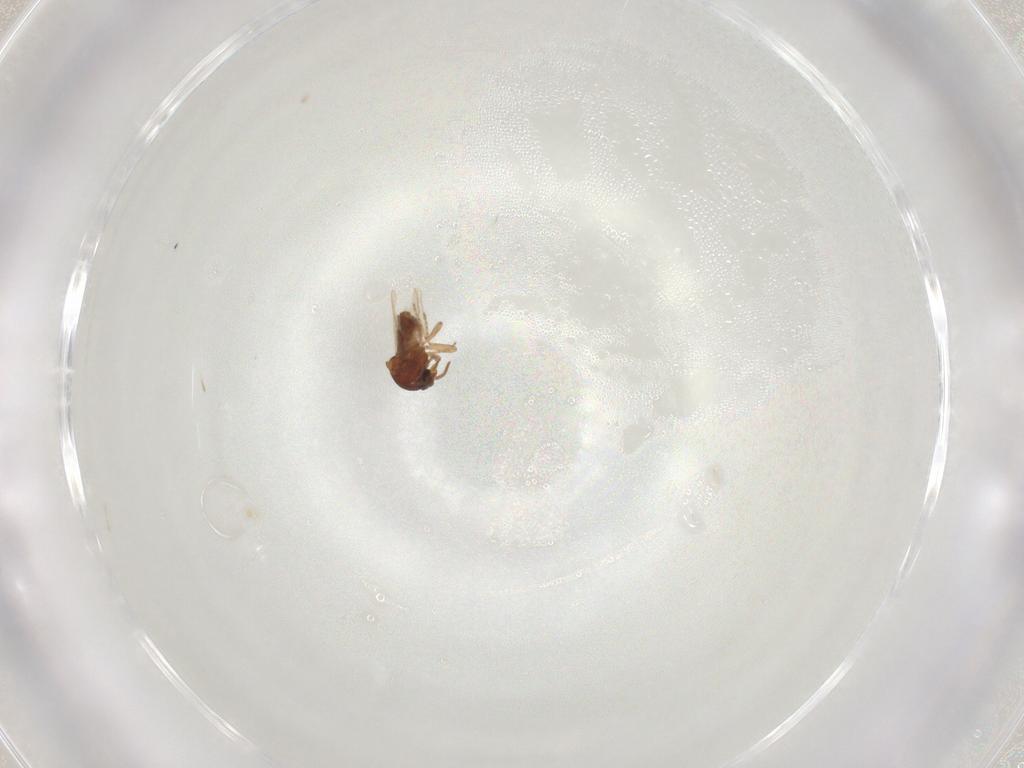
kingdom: Animalia
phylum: Arthropoda
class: Insecta
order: Diptera
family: Ceratopogonidae
